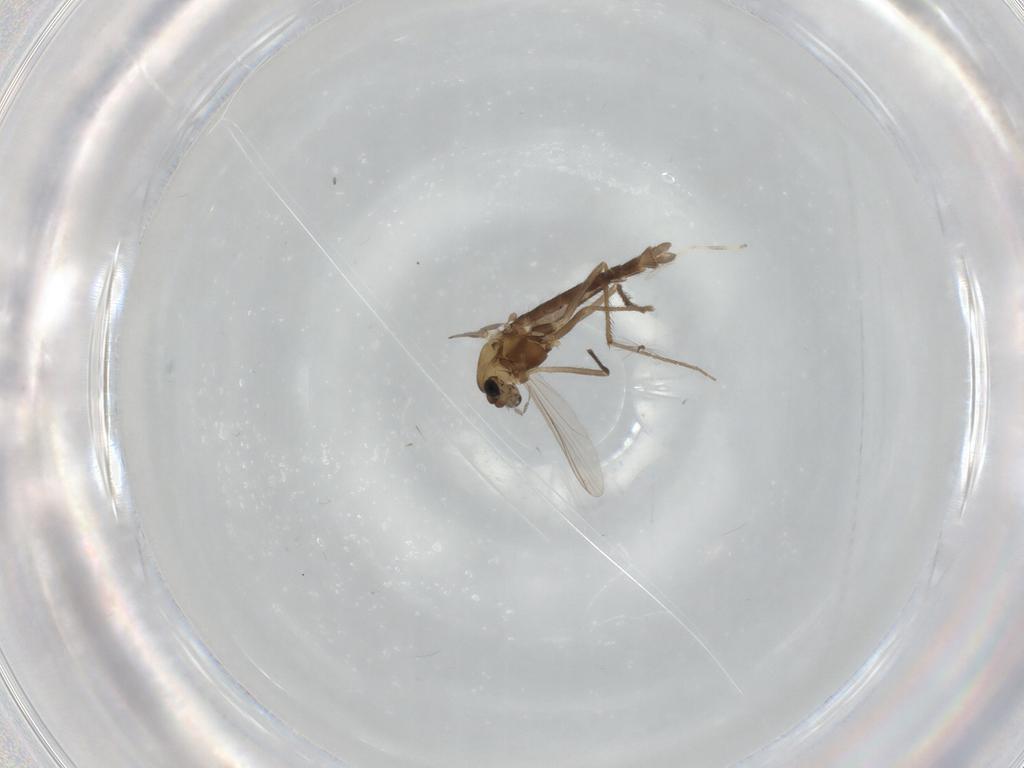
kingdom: Animalia
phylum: Arthropoda
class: Insecta
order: Diptera
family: Chironomidae
